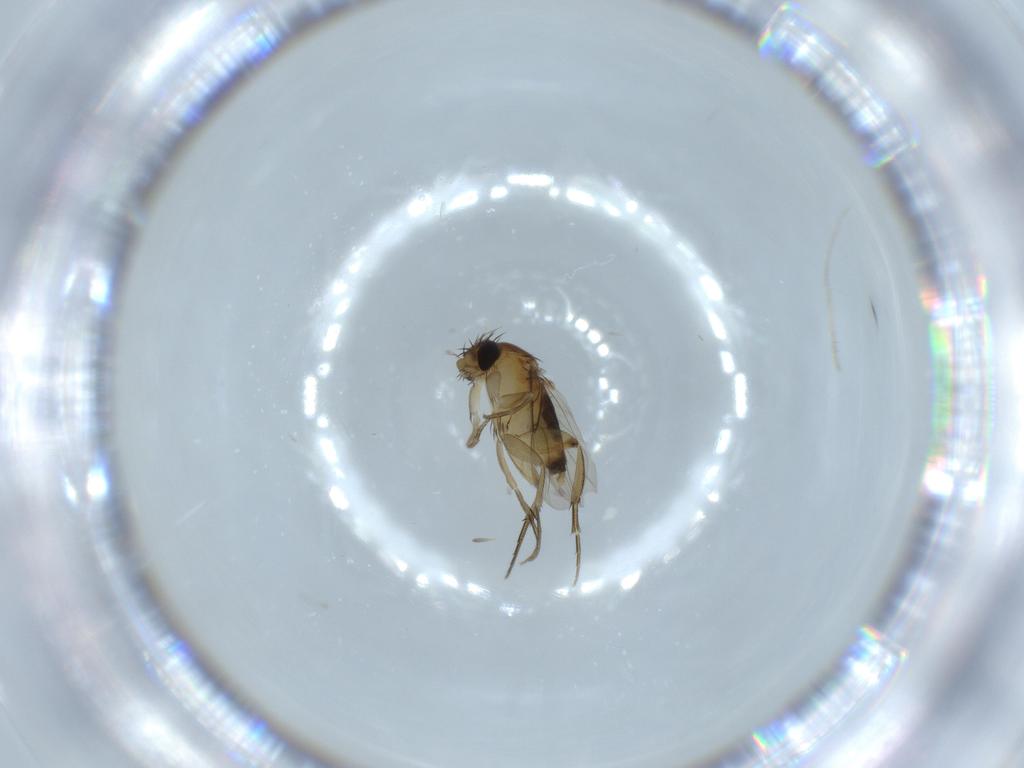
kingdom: Animalia
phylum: Arthropoda
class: Insecta
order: Diptera
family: Phoridae
